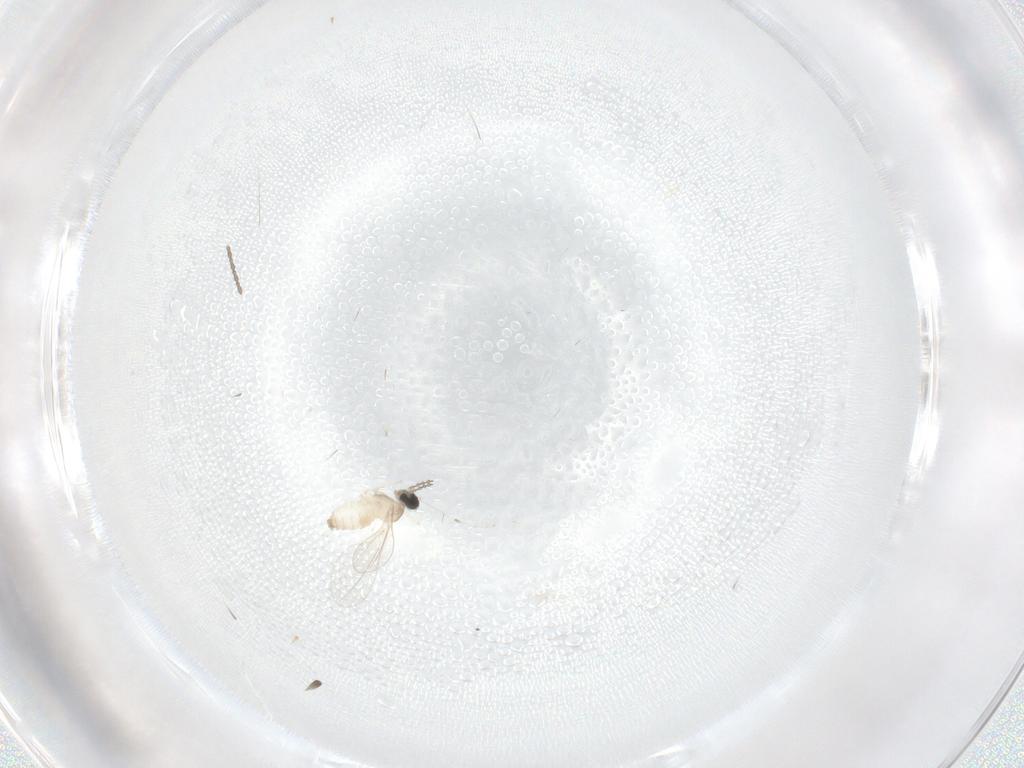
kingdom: Animalia
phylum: Arthropoda
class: Insecta
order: Diptera
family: Cecidomyiidae
